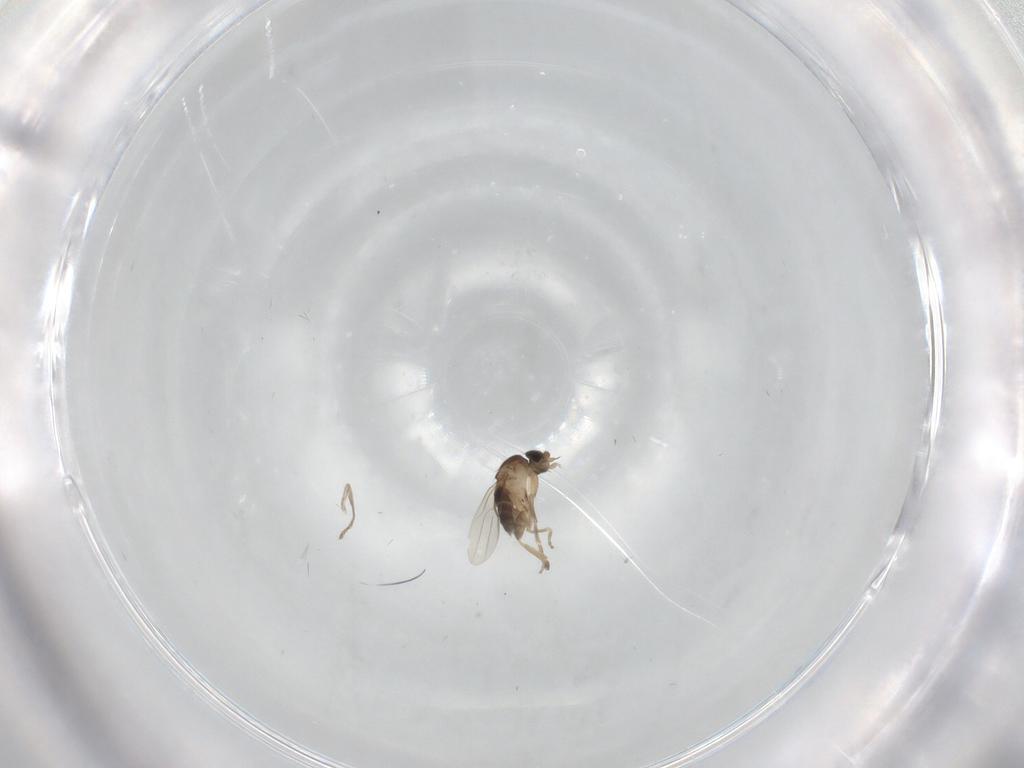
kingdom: Animalia
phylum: Arthropoda
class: Insecta
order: Diptera
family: Phoridae
